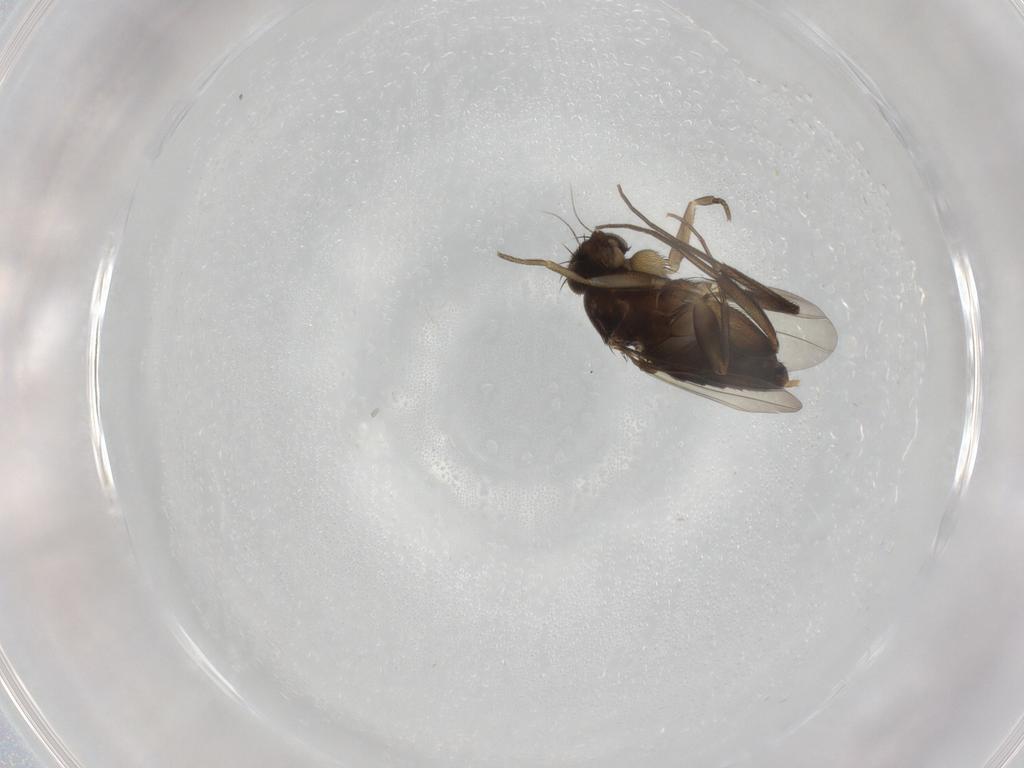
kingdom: Animalia
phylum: Arthropoda
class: Insecta
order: Diptera
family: Phoridae
